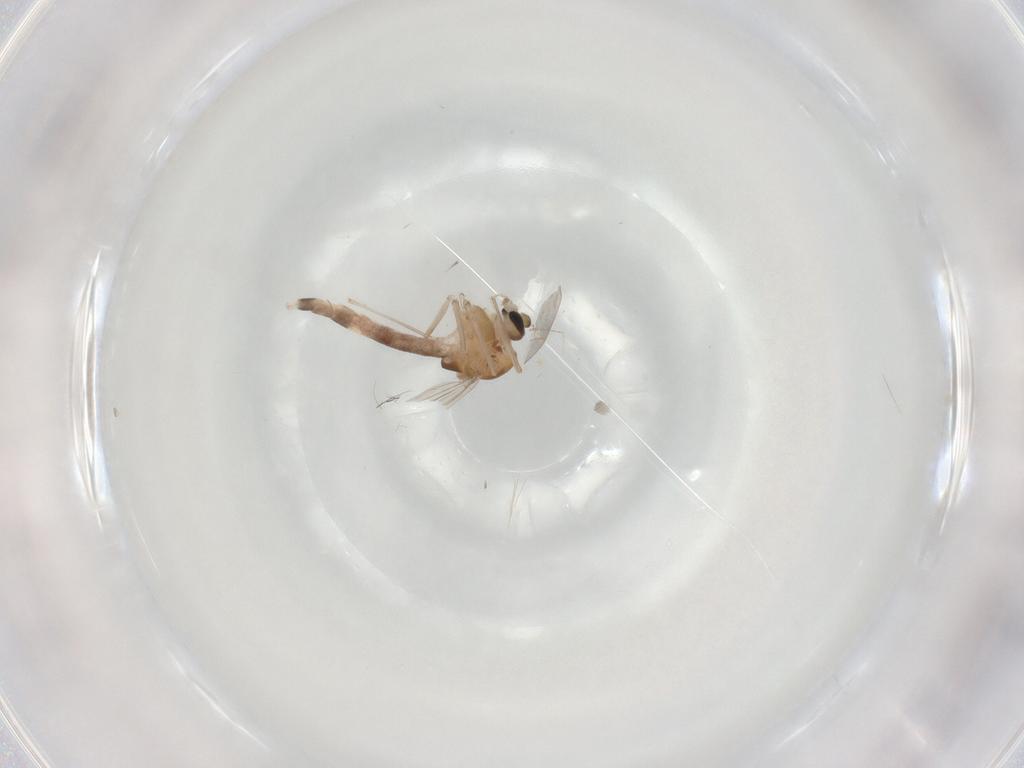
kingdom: Animalia
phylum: Arthropoda
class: Insecta
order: Diptera
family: Chironomidae
